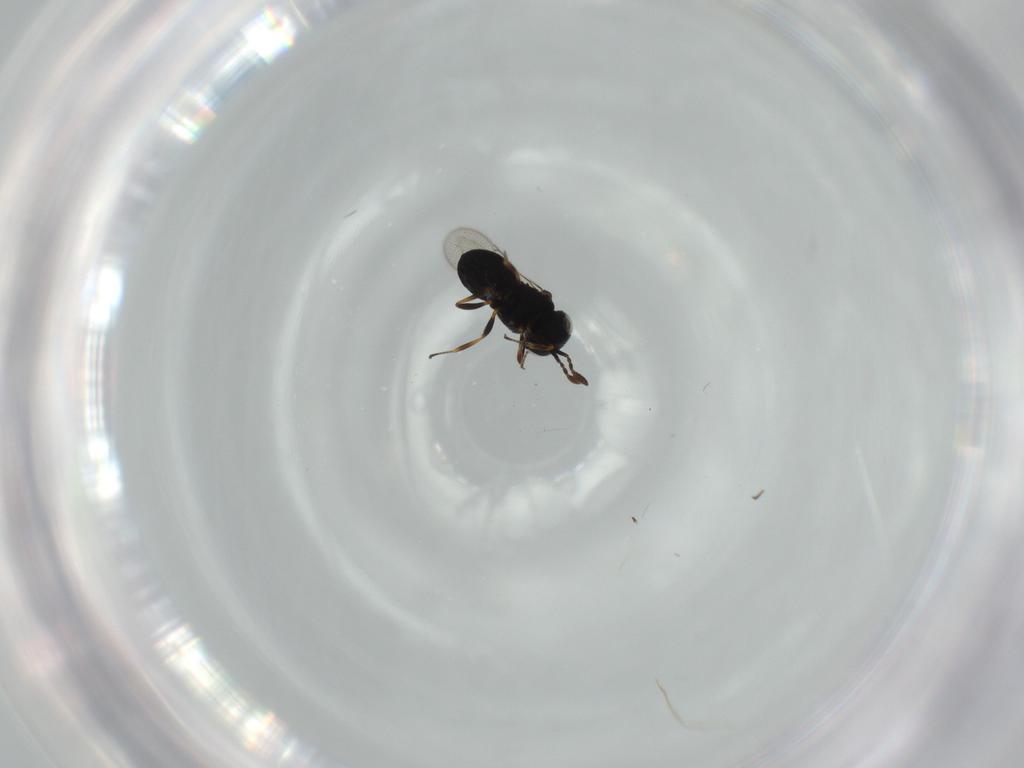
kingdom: Animalia
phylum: Arthropoda
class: Insecta
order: Hymenoptera
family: Scelionidae
